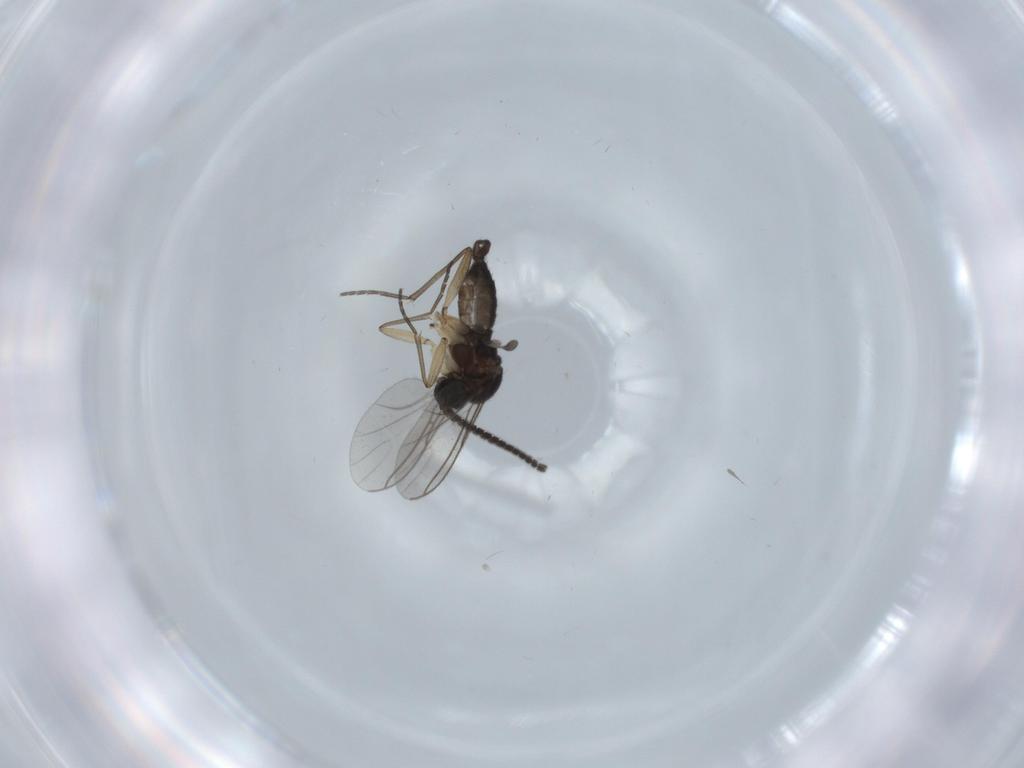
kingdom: Animalia
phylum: Arthropoda
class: Insecta
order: Diptera
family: Sciaridae
